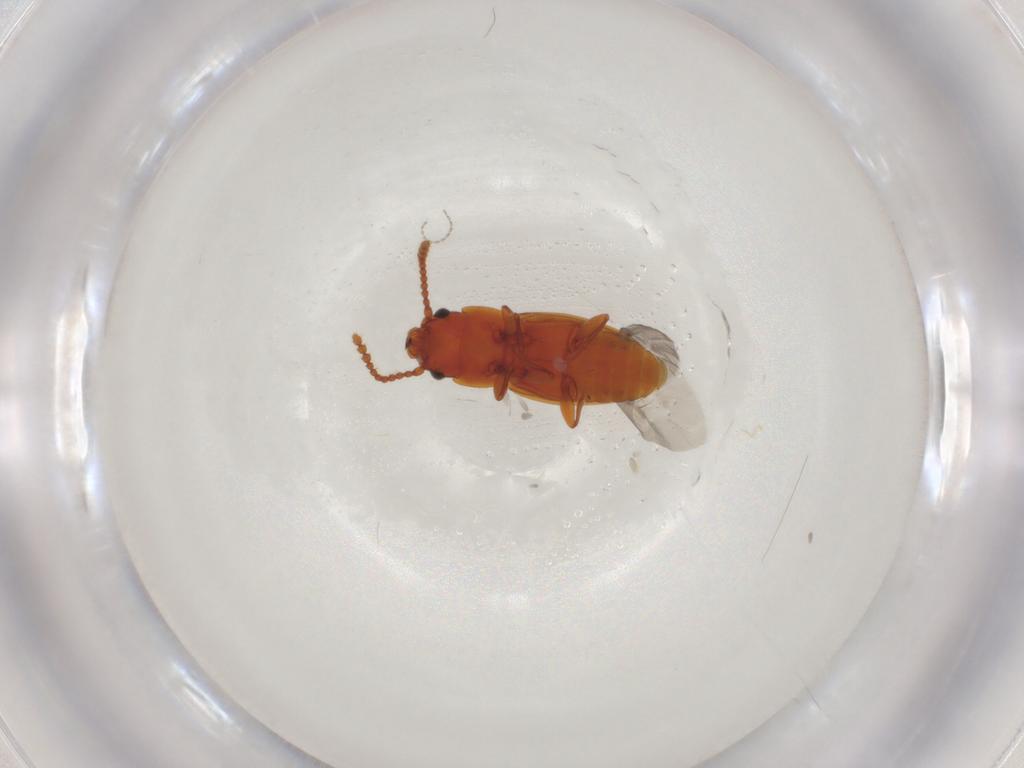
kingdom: Animalia
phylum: Arthropoda
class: Insecta
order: Coleoptera
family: Laemophloeidae
